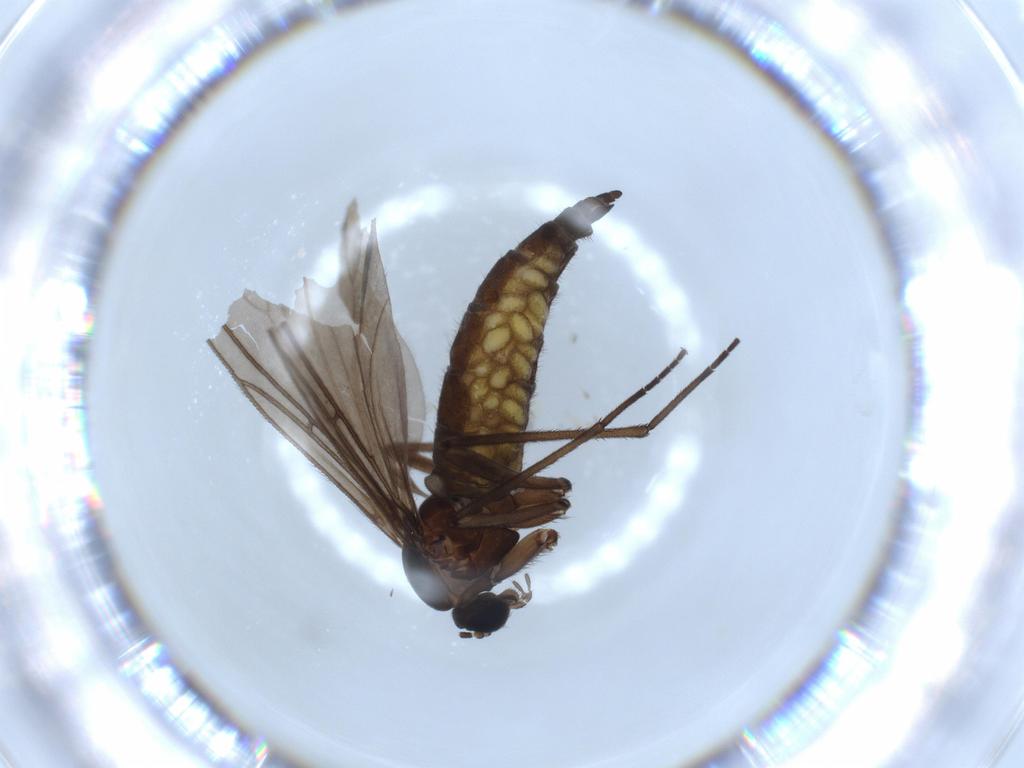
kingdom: Animalia
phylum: Arthropoda
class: Insecta
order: Diptera
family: Sciaridae
